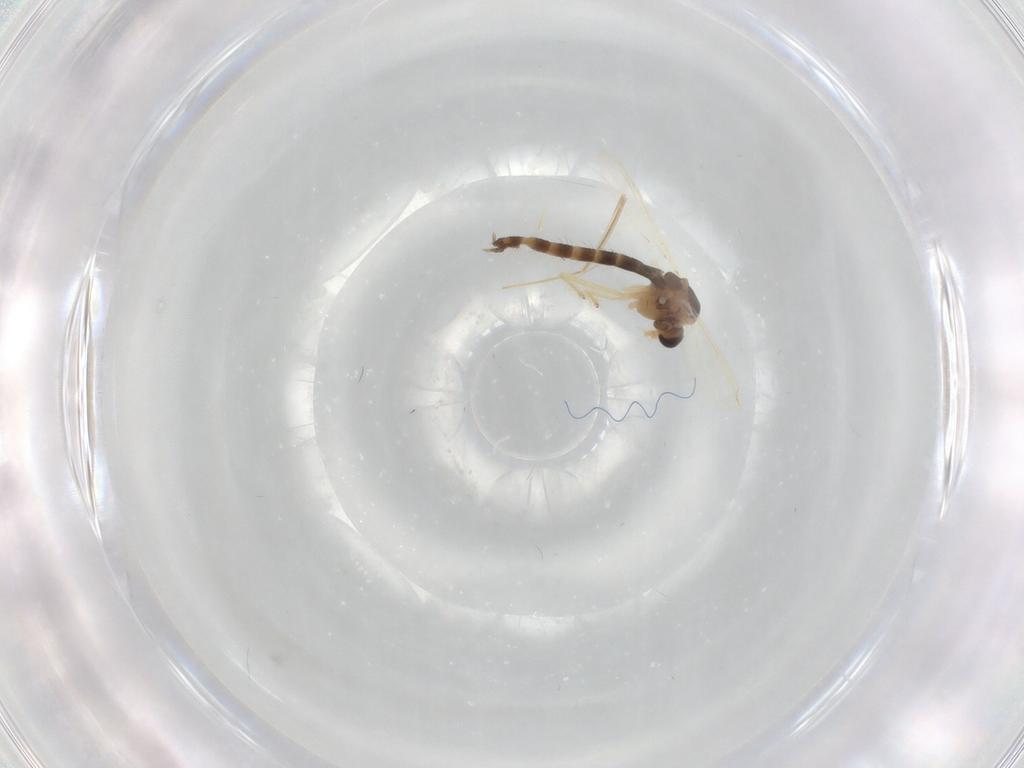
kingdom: Animalia
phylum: Arthropoda
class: Insecta
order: Diptera
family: Chironomidae
